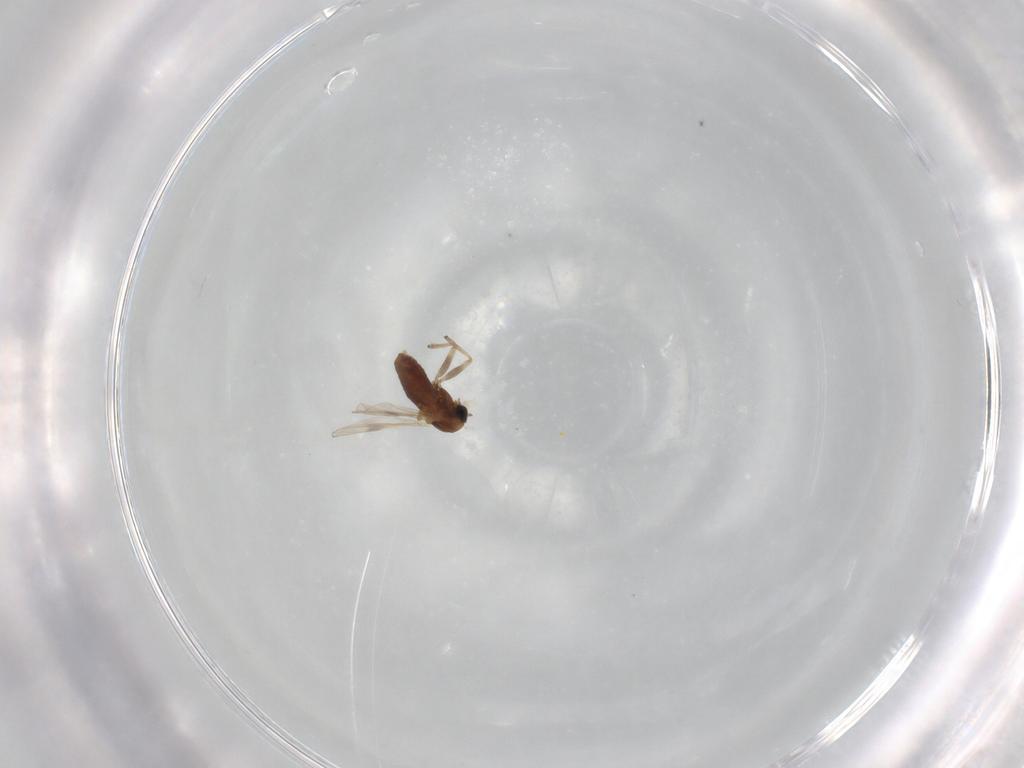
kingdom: Animalia
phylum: Arthropoda
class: Insecta
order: Diptera
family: Chironomidae
